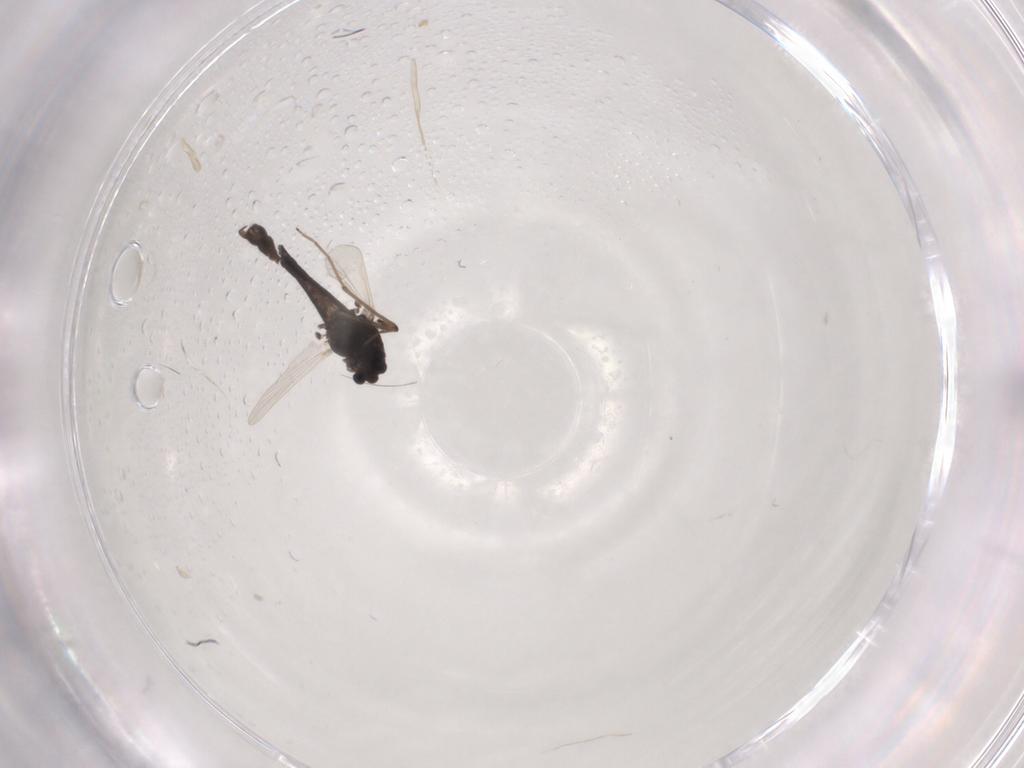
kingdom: Animalia
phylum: Arthropoda
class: Insecta
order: Diptera
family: Chironomidae
